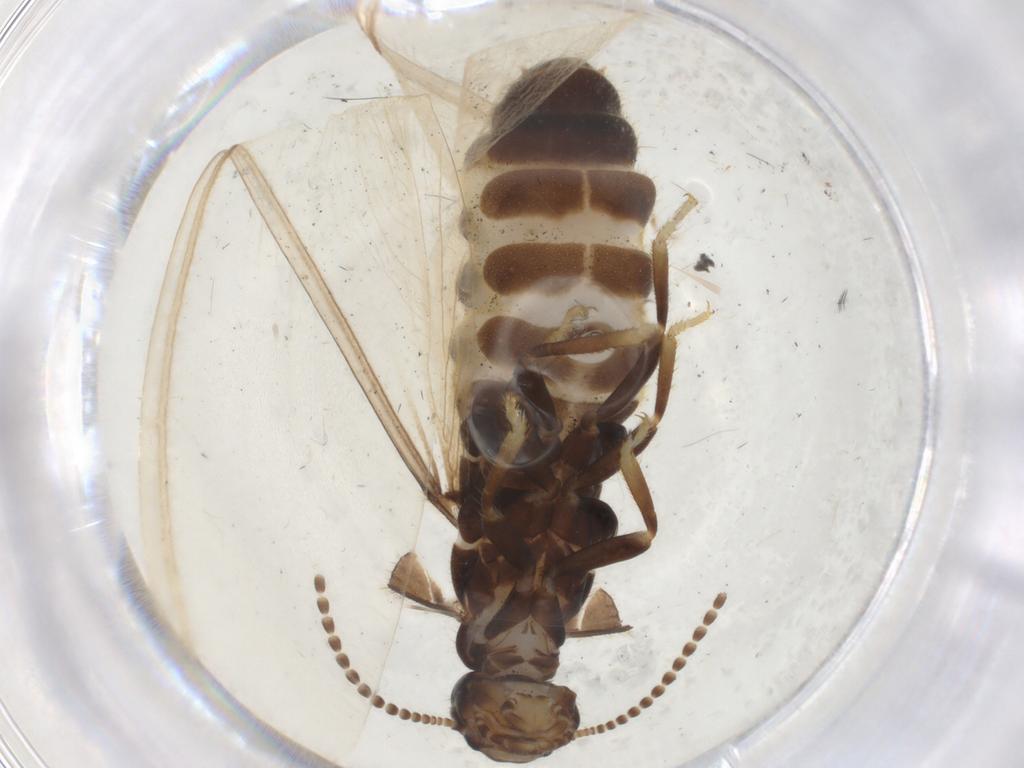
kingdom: Animalia
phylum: Arthropoda
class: Insecta
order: Blattodea
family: Rhinotermitidae
